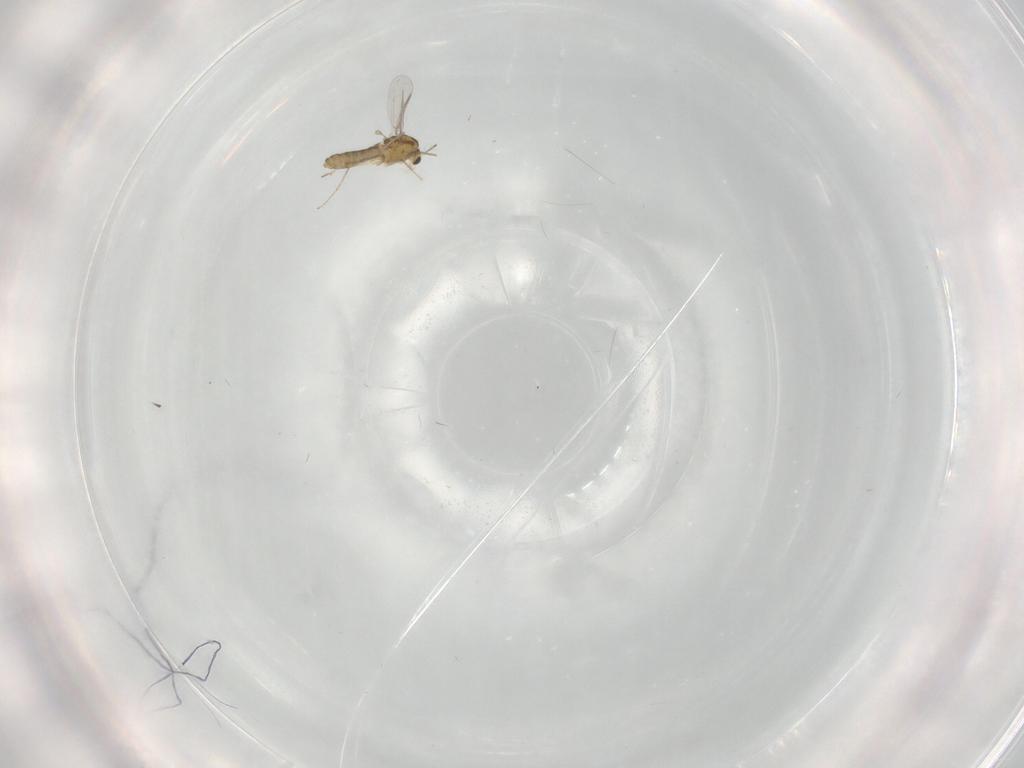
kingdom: Animalia
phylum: Arthropoda
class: Insecta
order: Diptera
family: Chironomidae
